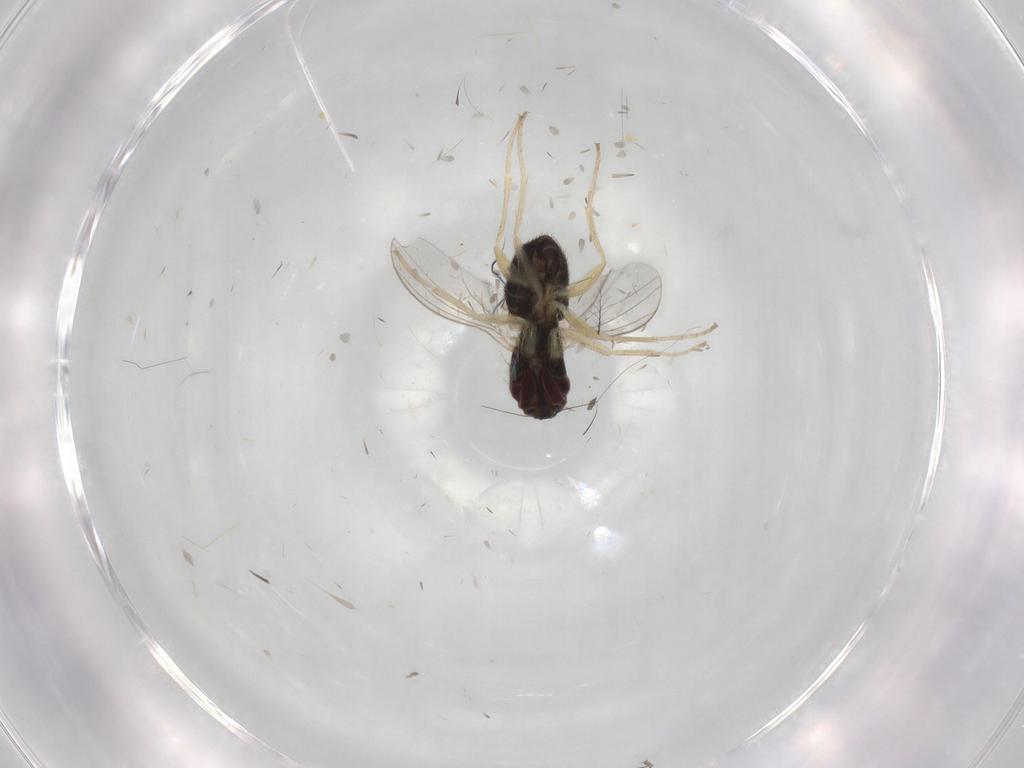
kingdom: Animalia
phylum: Arthropoda
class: Insecta
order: Diptera
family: Dolichopodidae
